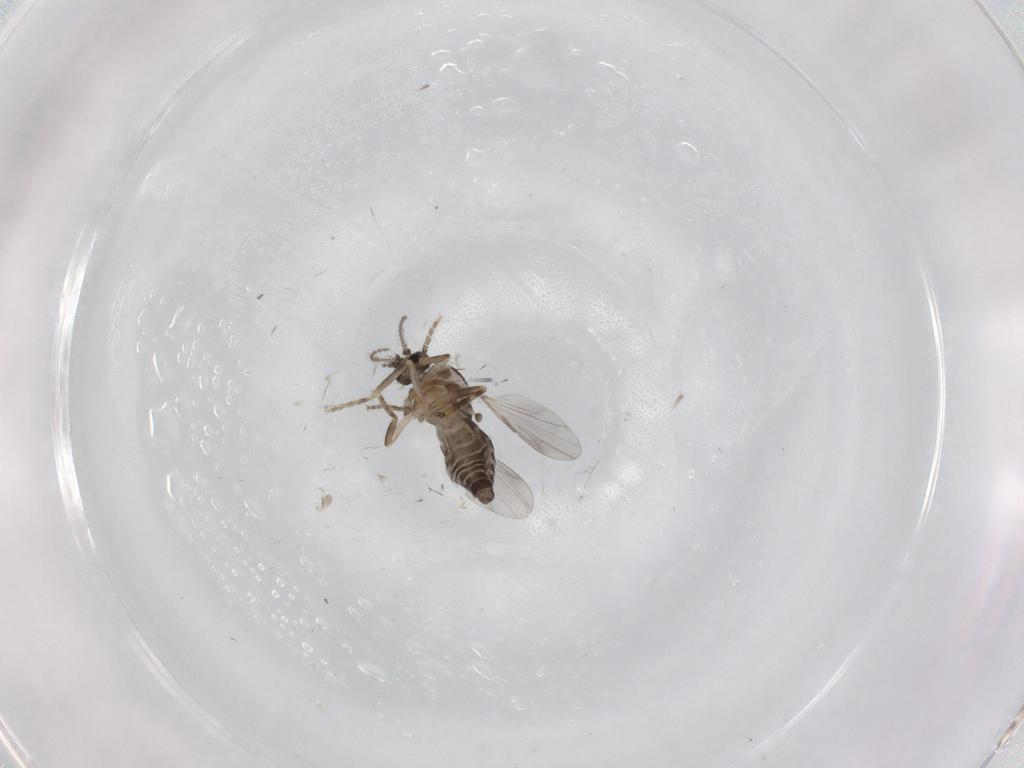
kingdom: Animalia
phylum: Arthropoda
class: Insecta
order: Diptera
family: Ceratopogonidae
